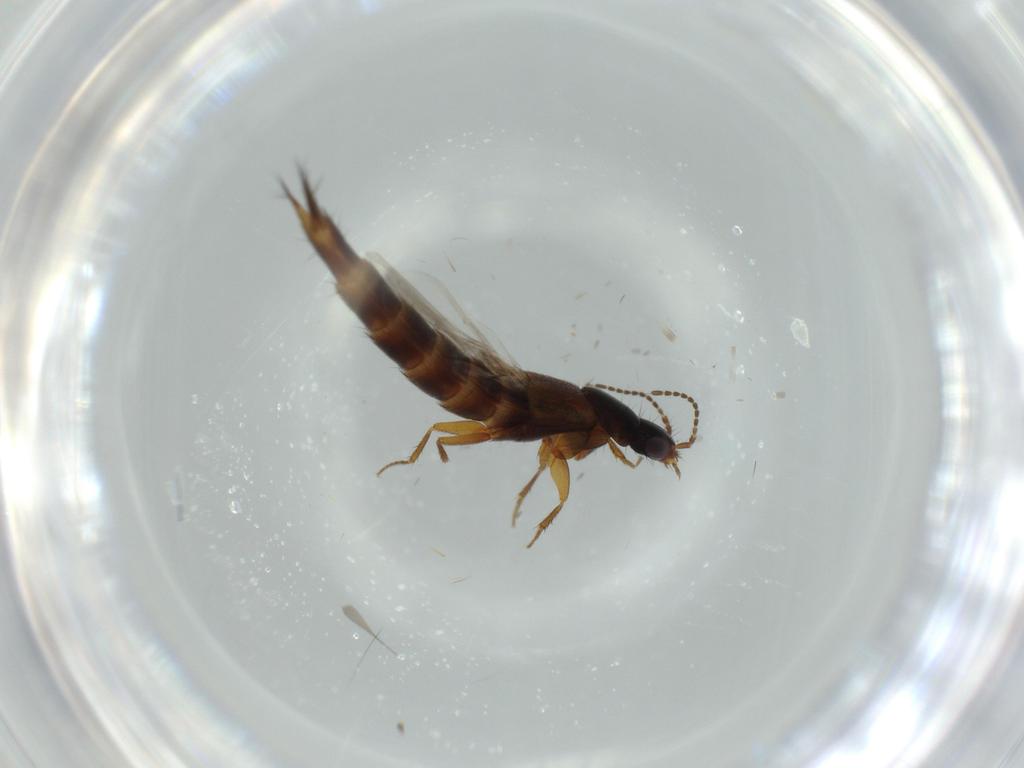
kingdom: Animalia
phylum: Arthropoda
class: Insecta
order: Coleoptera
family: Staphylinidae
